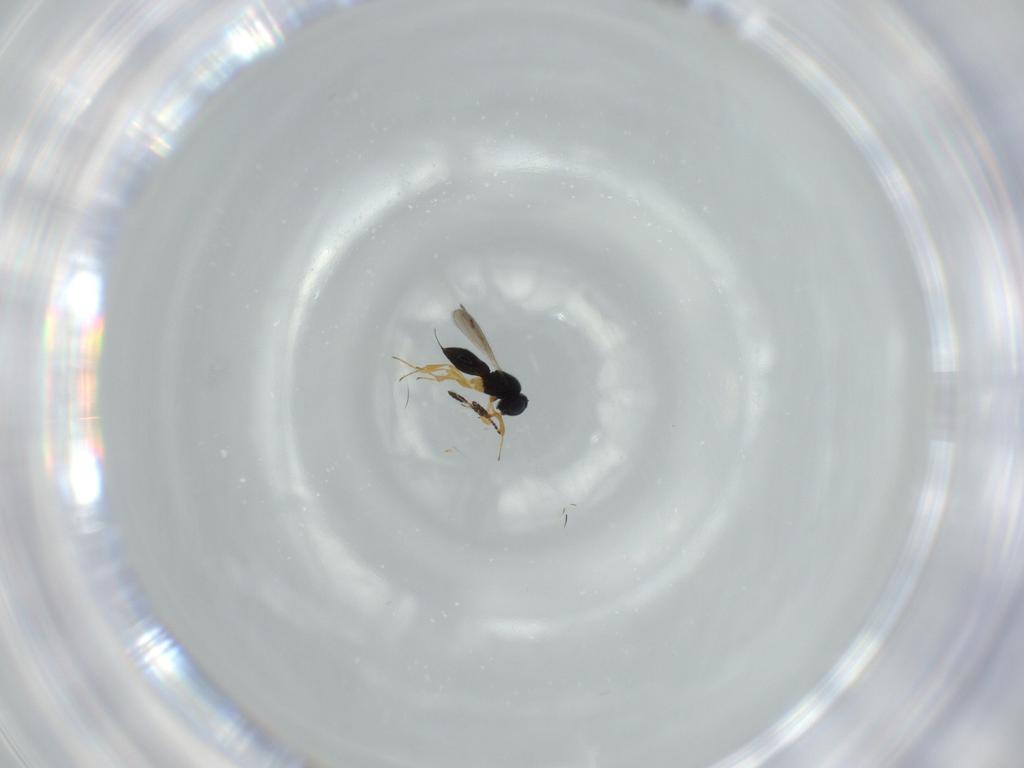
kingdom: Animalia
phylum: Arthropoda
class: Insecta
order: Hymenoptera
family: Scelionidae
